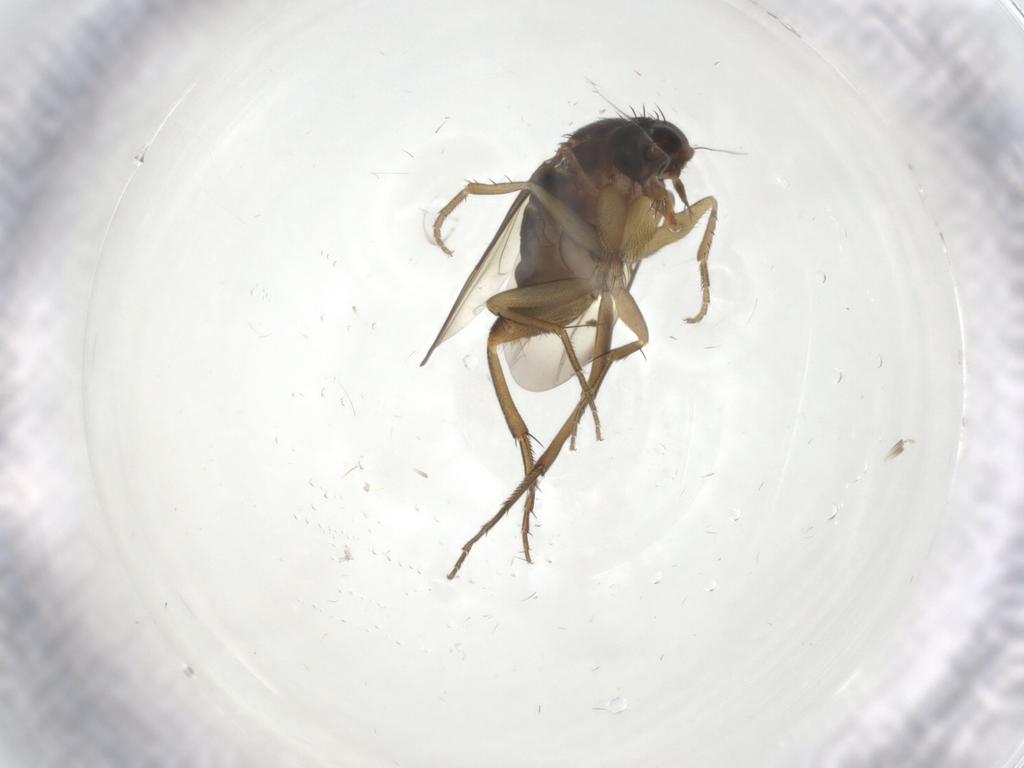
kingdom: Animalia
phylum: Arthropoda
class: Insecta
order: Diptera
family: Phoridae
